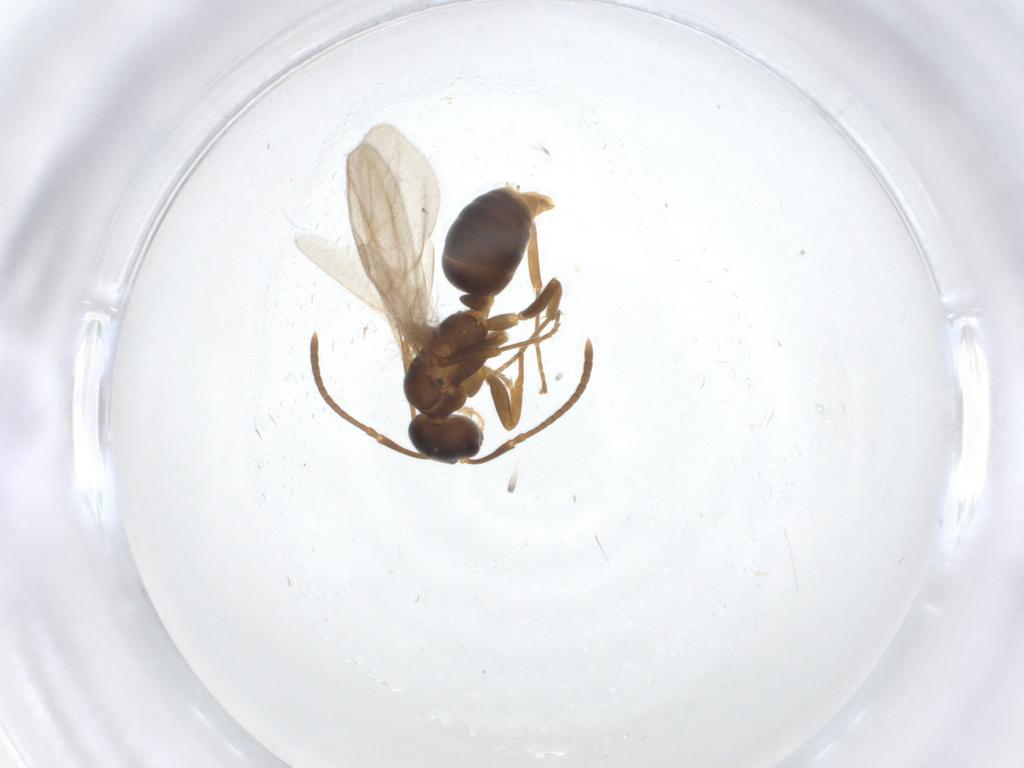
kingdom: Animalia
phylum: Arthropoda
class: Insecta
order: Hymenoptera
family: Formicidae
